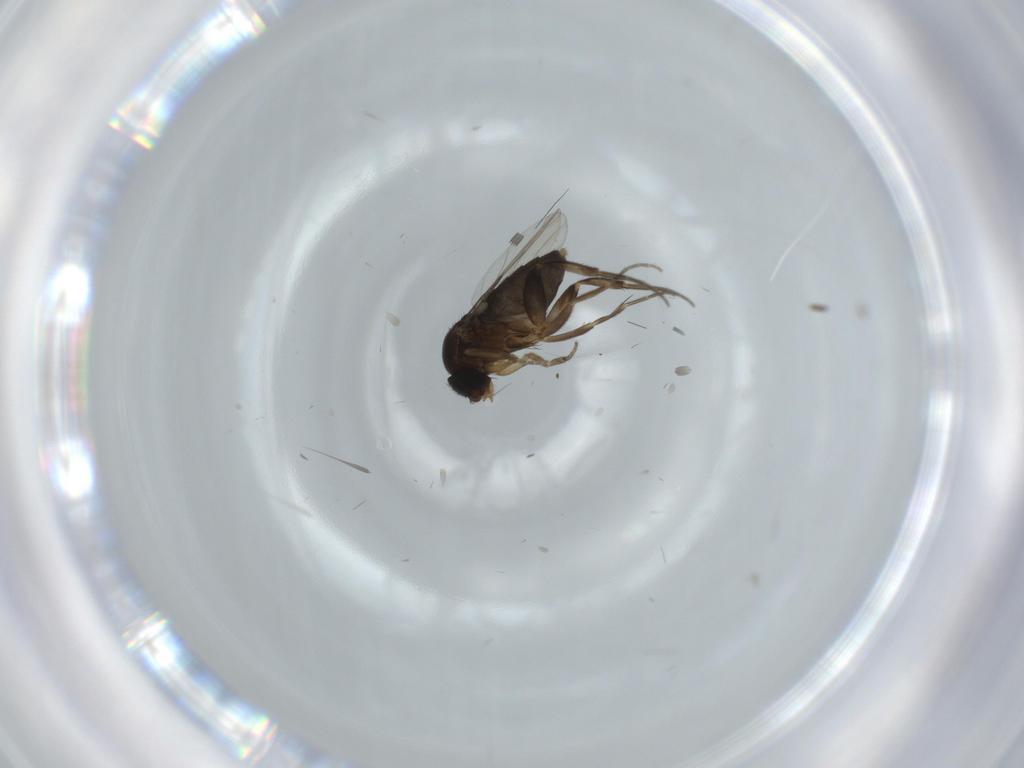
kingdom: Animalia
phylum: Arthropoda
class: Insecta
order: Diptera
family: Phoridae
